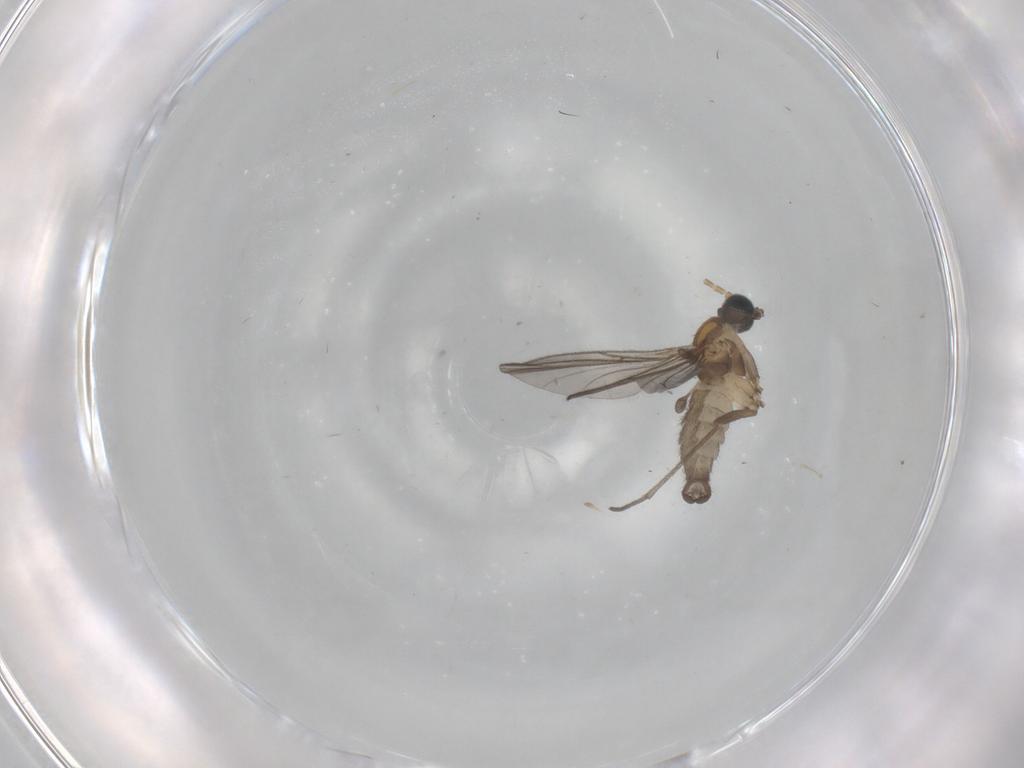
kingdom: Animalia
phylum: Arthropoda
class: Insecta
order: Diptera
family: Sciaridae
